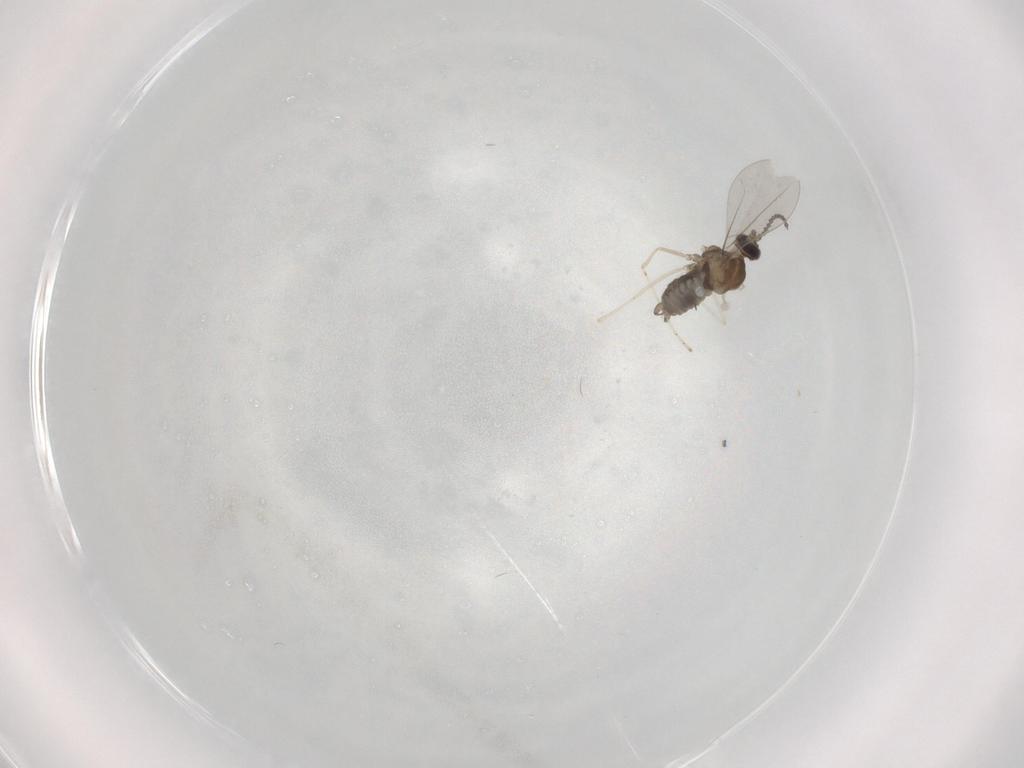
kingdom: Animalia
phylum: Arthropoda
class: Insecta
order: Diptera
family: Cecidomyiidae
